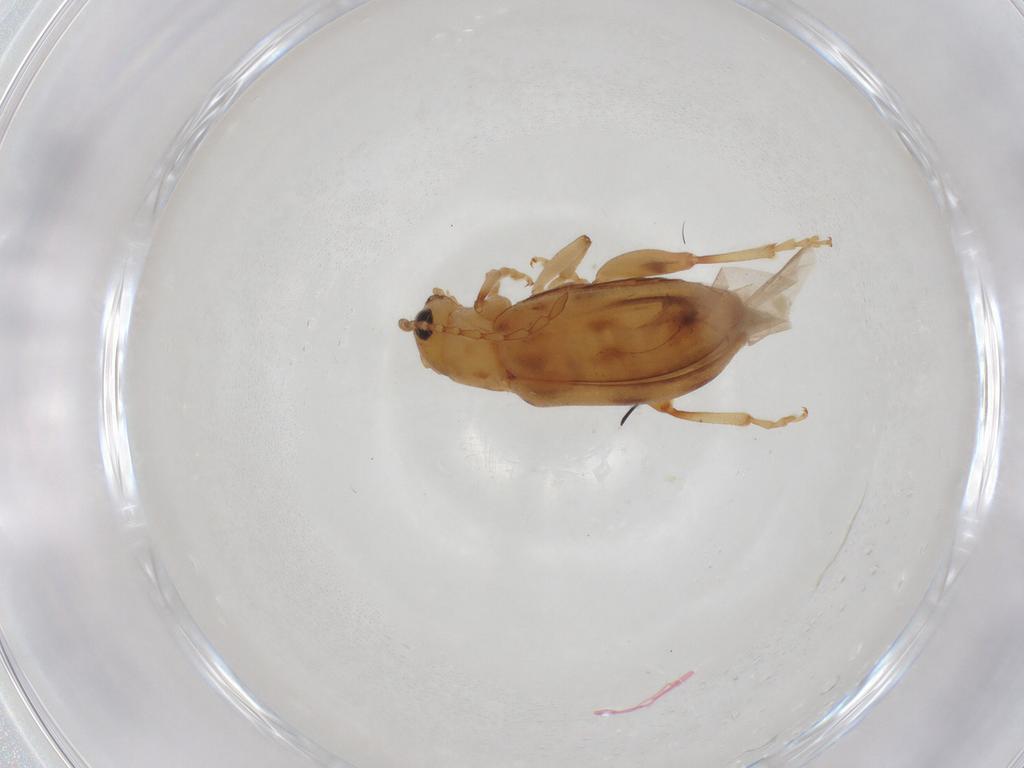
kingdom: Animalia
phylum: Arthropoda
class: Insecta
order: Coleoptera
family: Chrysomelidae
